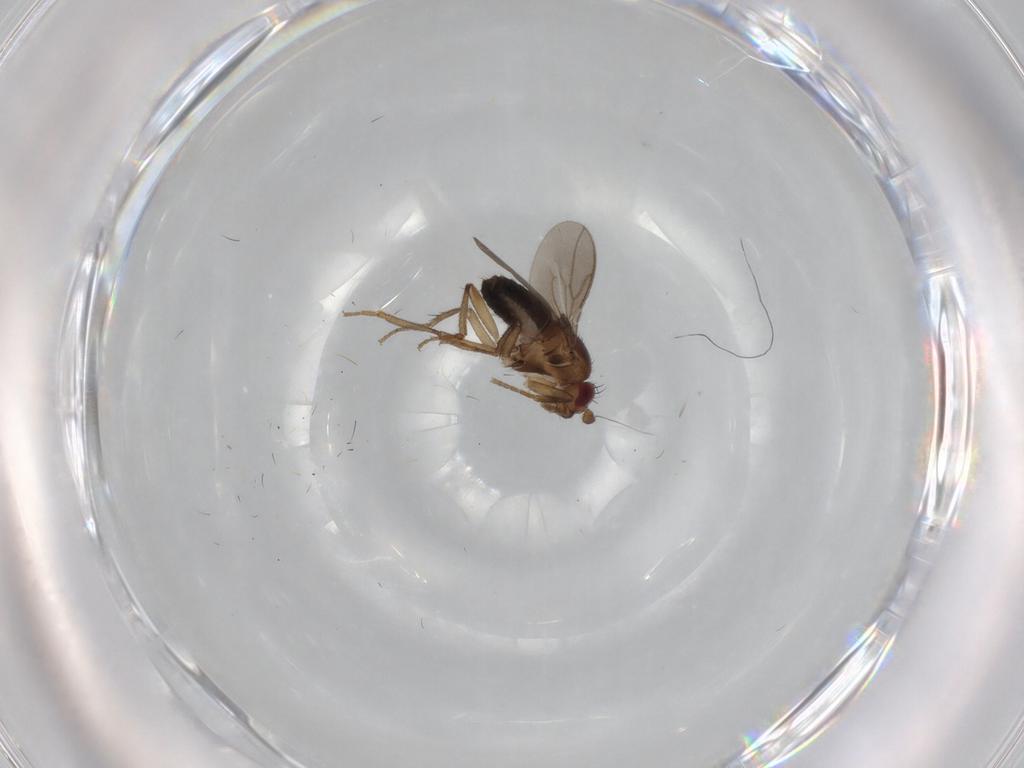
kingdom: Animalia
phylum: Arthropoda
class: Insecta
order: Diptera
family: Sphaeroceridae
